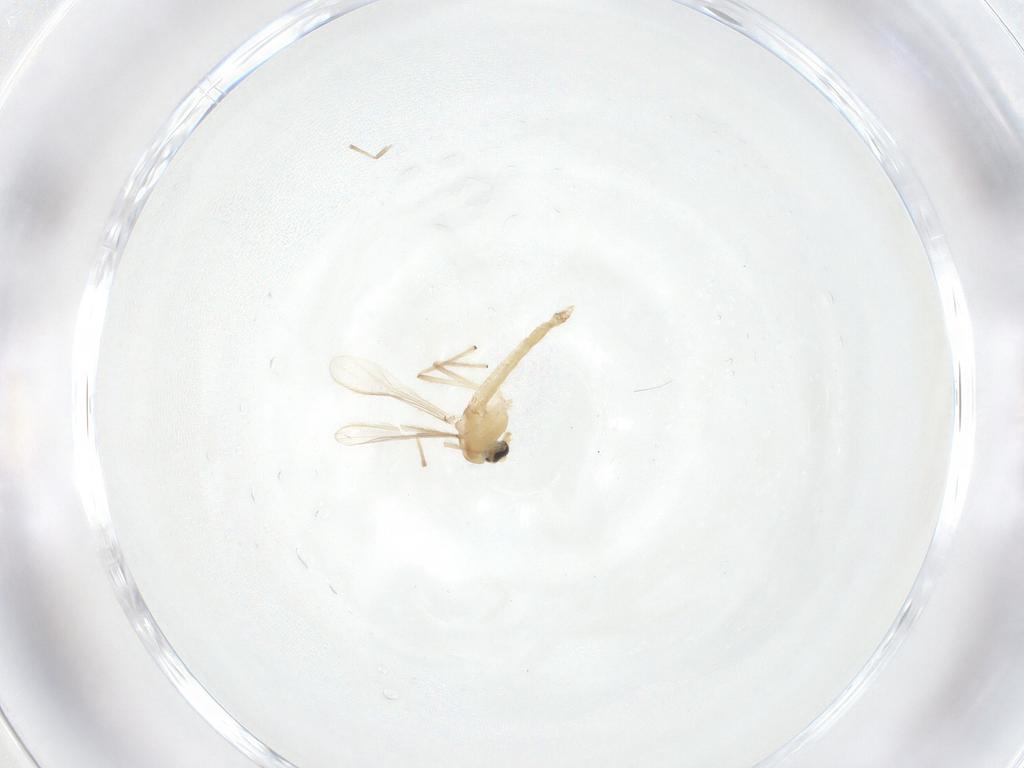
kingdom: Animalia
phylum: Arthropoda
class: Insecta
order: Diptera
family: Chironomidae
